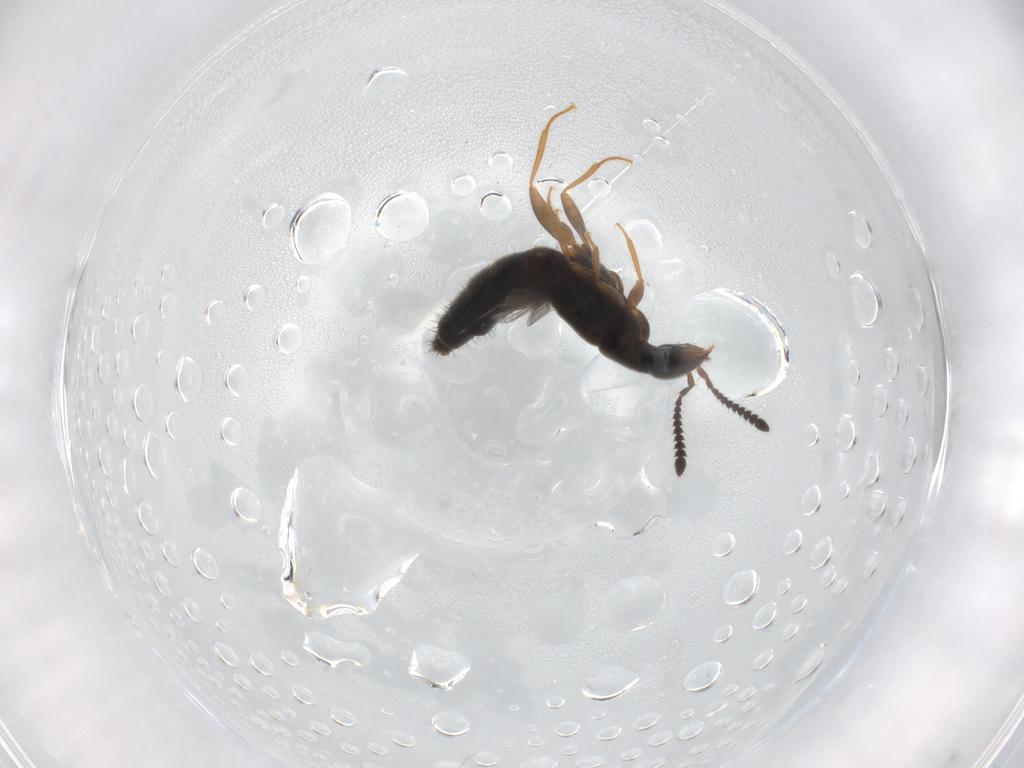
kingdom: Animalia
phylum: Arthropoda
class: Insecta
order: Coleoptera
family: Staphylinidae
